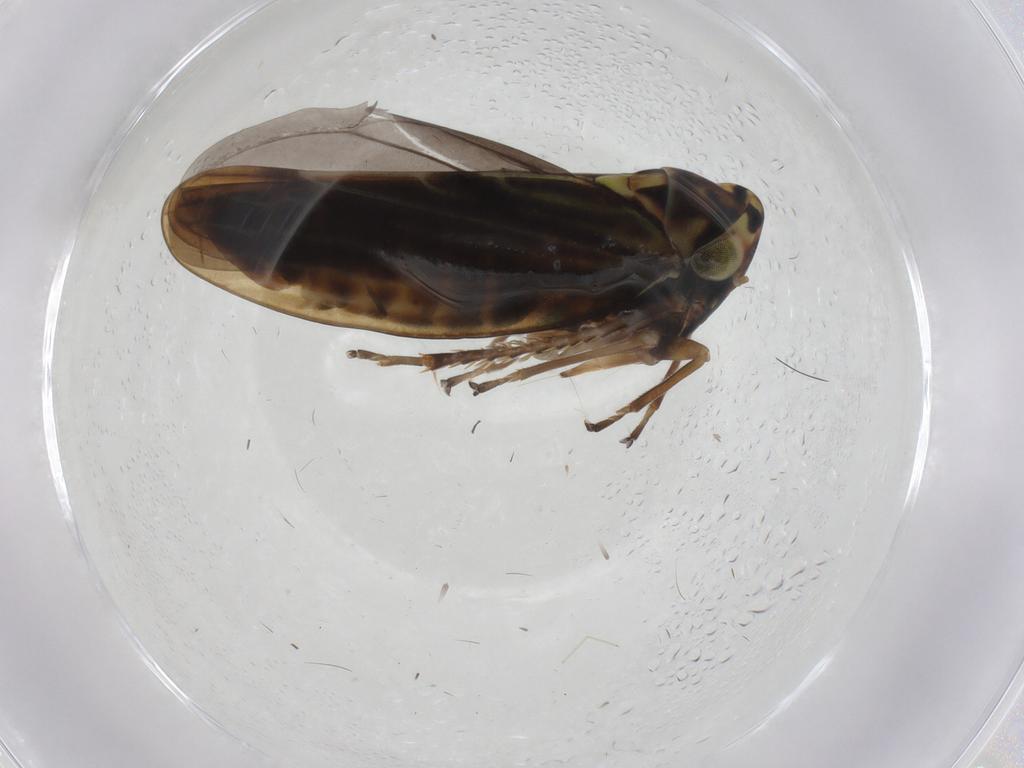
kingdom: Animalia
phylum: Arthropoda
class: Insecta
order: Hemiptera
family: Cicadellidae
